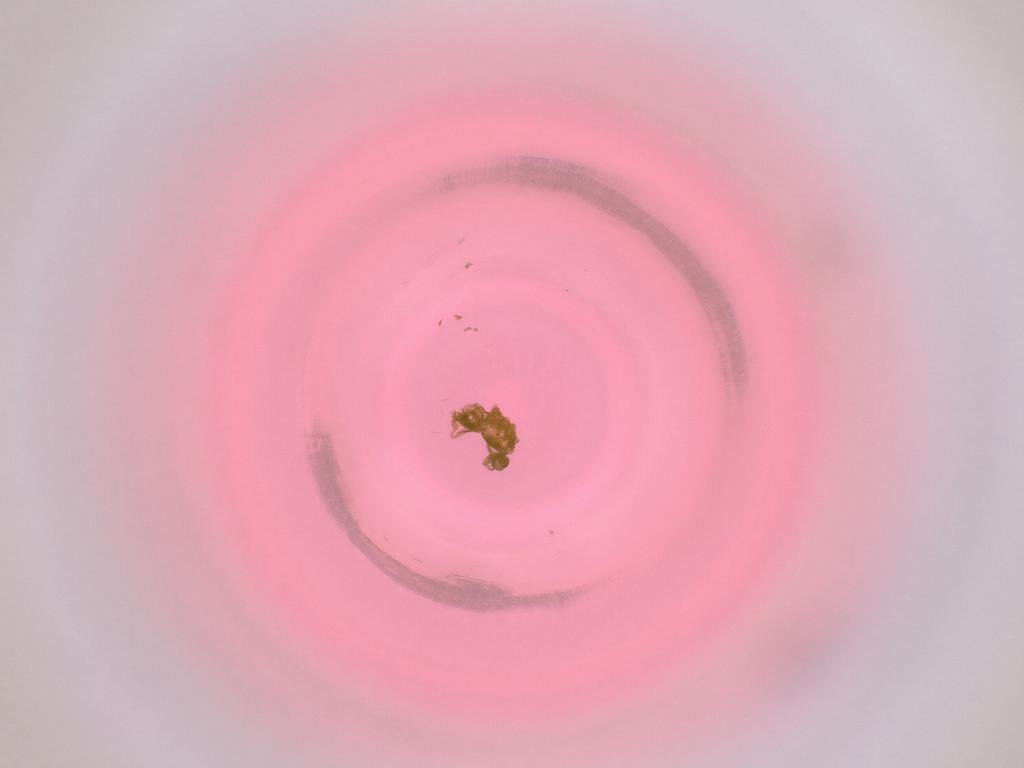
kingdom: Animalia
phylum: Arthropoda
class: Insecta
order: Diptera
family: Cecidomyiidae
